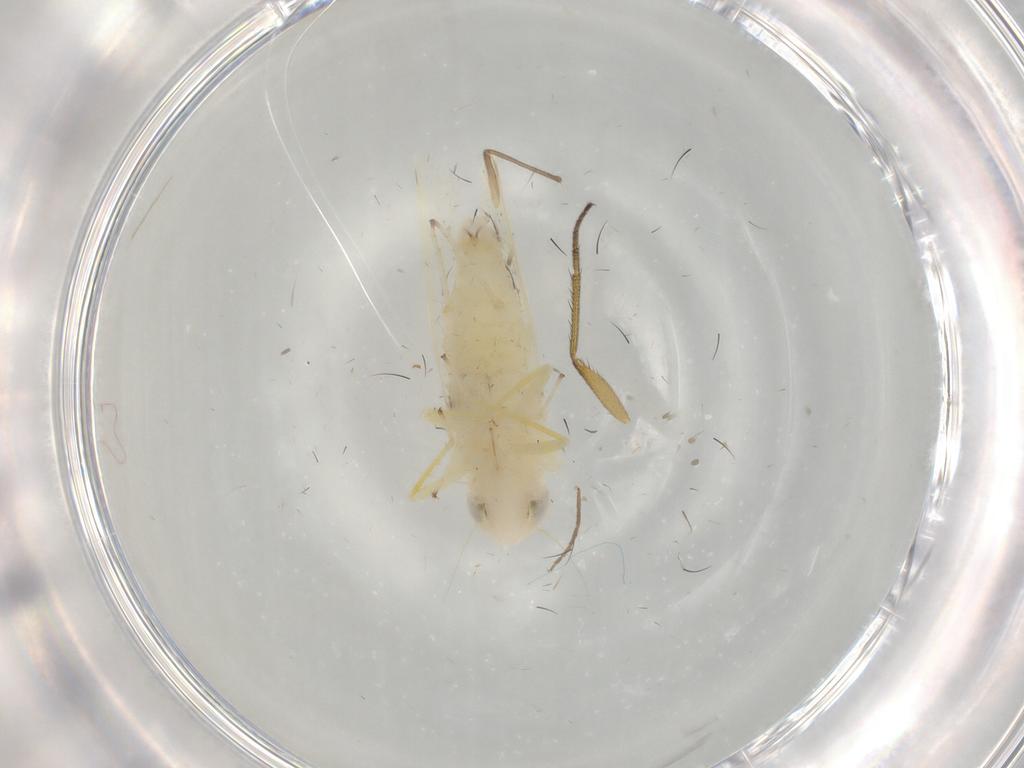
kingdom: Animalia
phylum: Arthropoda
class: Insecta
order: Hemiptera
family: Cicadellidae
